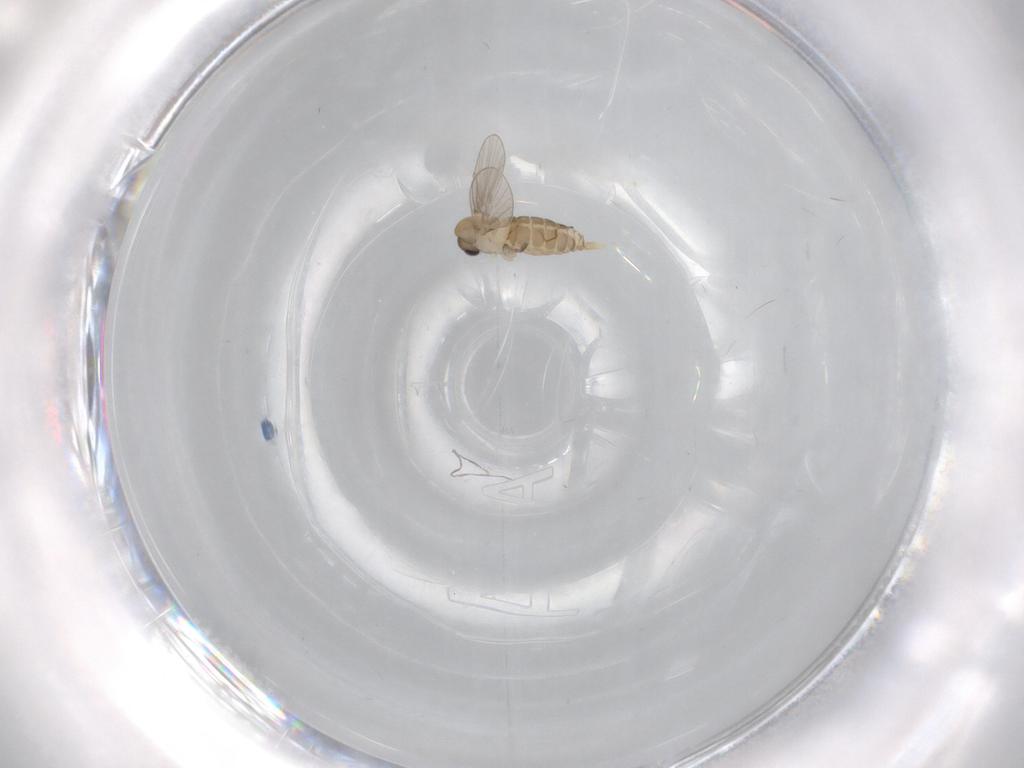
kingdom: Animalia
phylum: Arthropoda
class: Insecta
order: Diptera
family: Psychodidae
